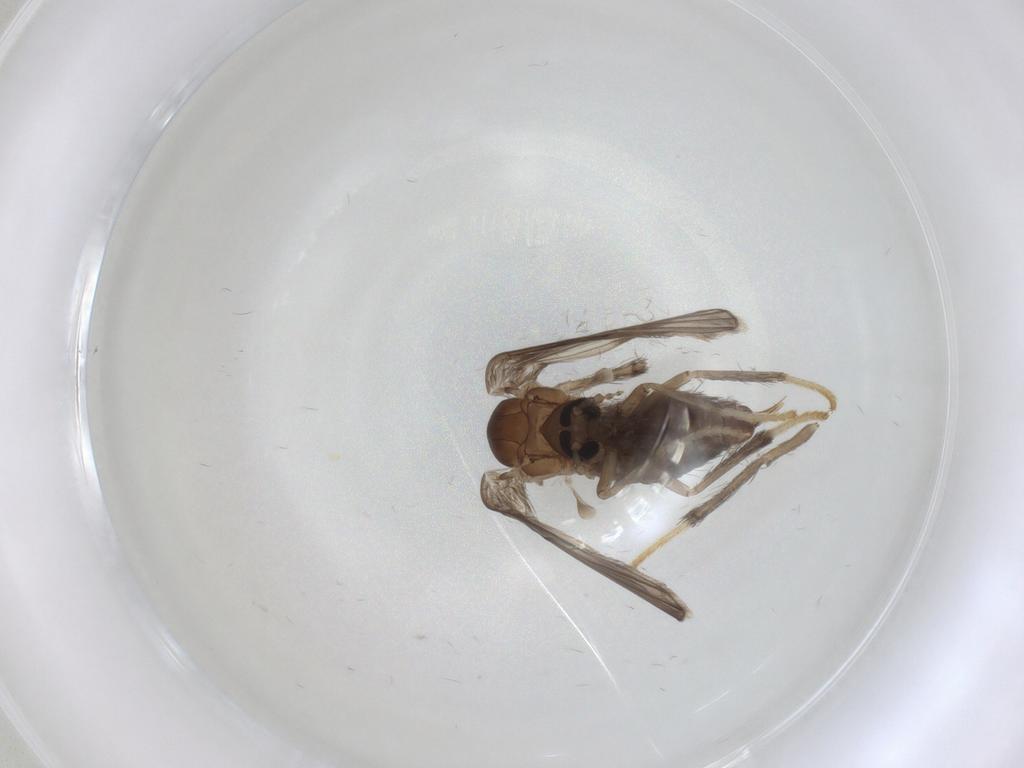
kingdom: Animalia
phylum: Arthropoda
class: Insecta
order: Diptera
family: Psychodidae
